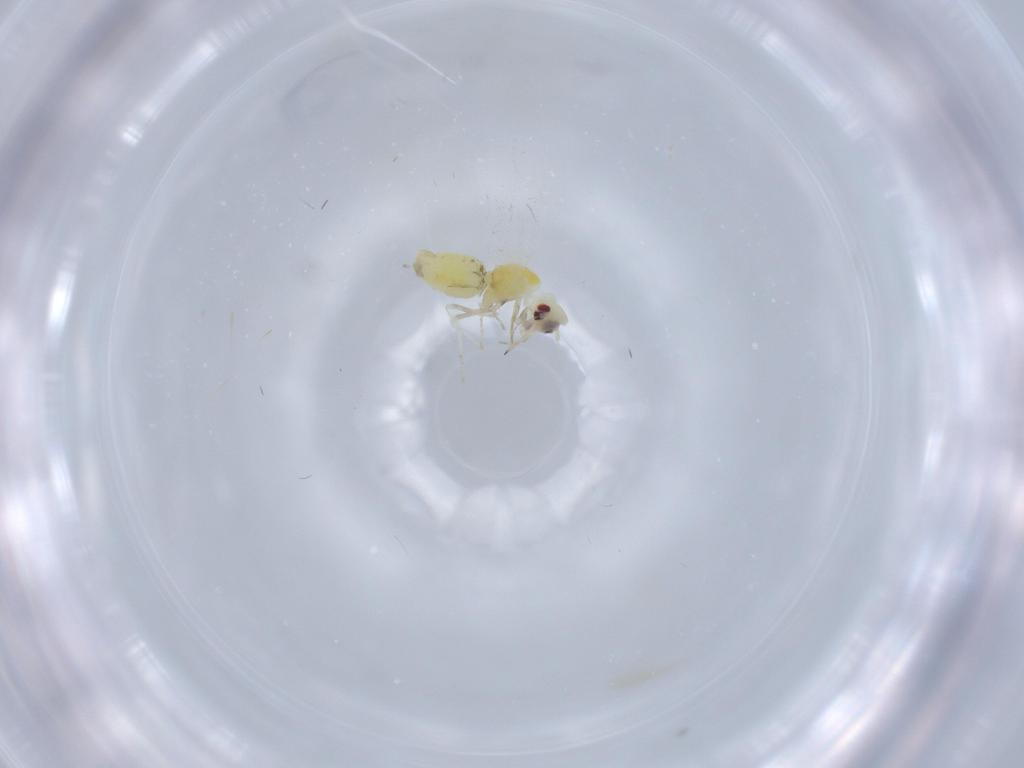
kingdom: Animalia
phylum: Arthropoda
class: Insecta
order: Hemiptera
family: Aleyrodidae
